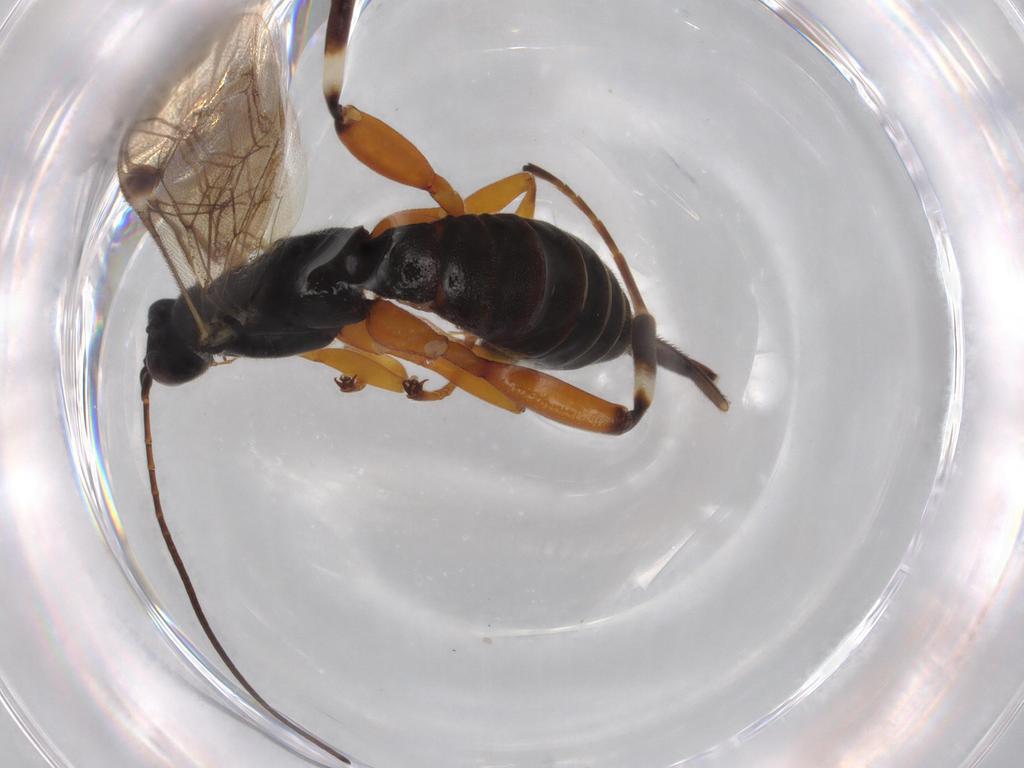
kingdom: Animalia
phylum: Arthropoda
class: Insecta
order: Hymenoptera
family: Ichneumonidae
